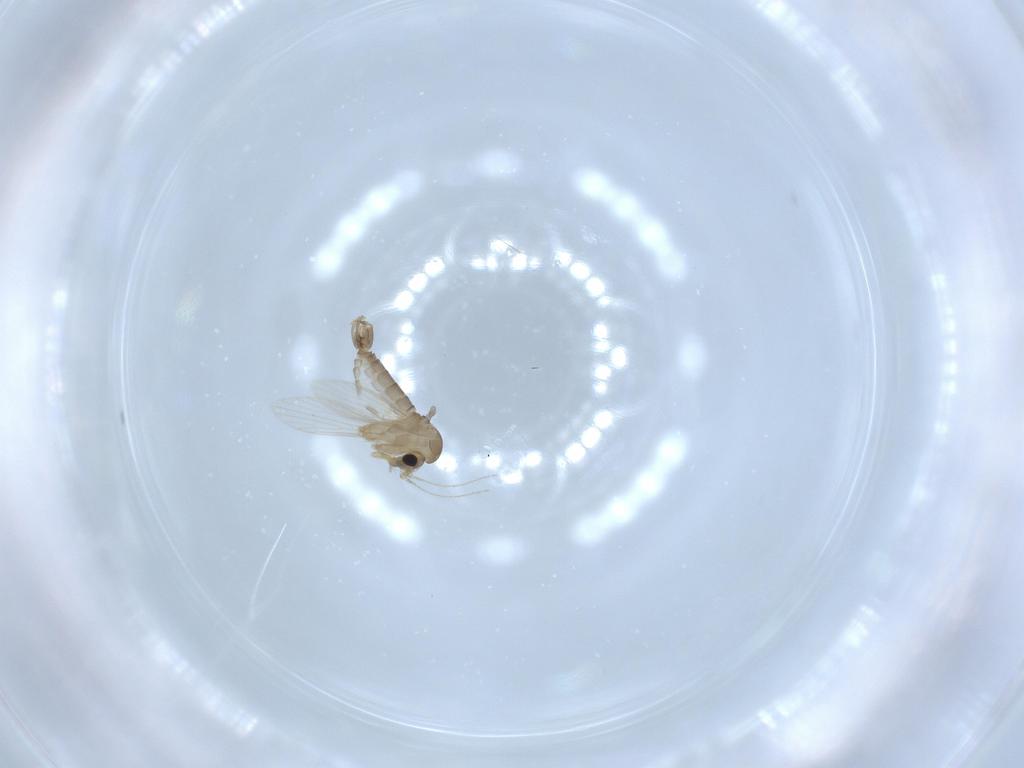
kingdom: Animalia
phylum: Arthropoda
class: Insecta
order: Diptera
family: Psychodidae
